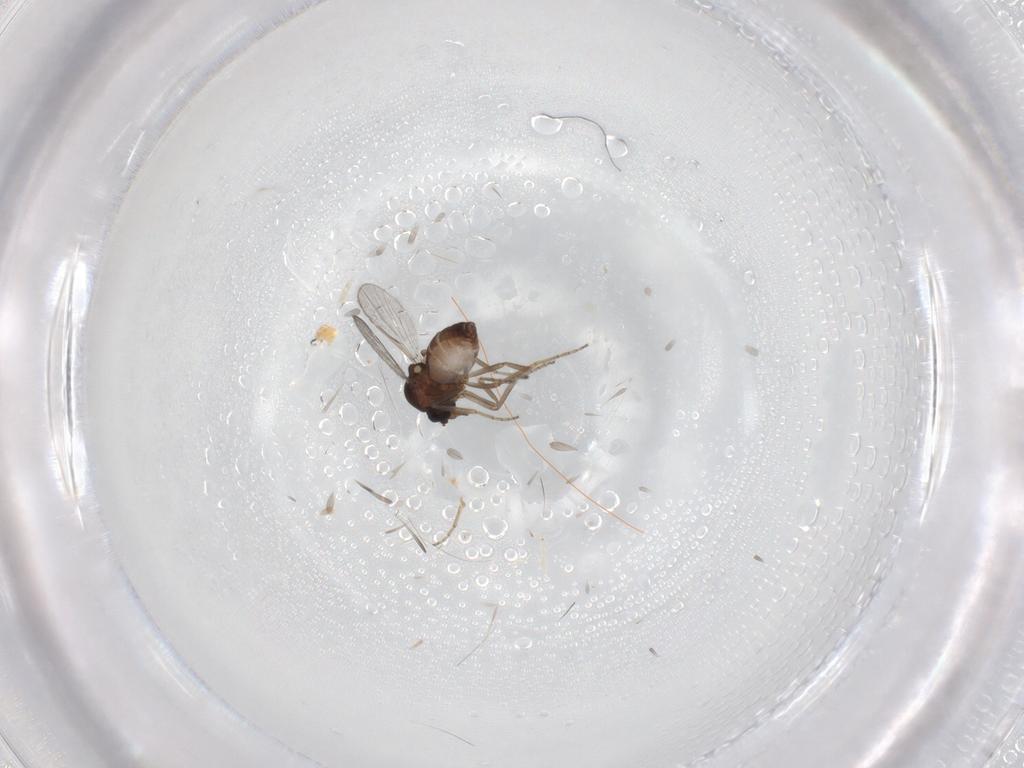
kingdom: Animalia
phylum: Arthropoda
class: Insecta
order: Diptera
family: Ceratopogonidae
